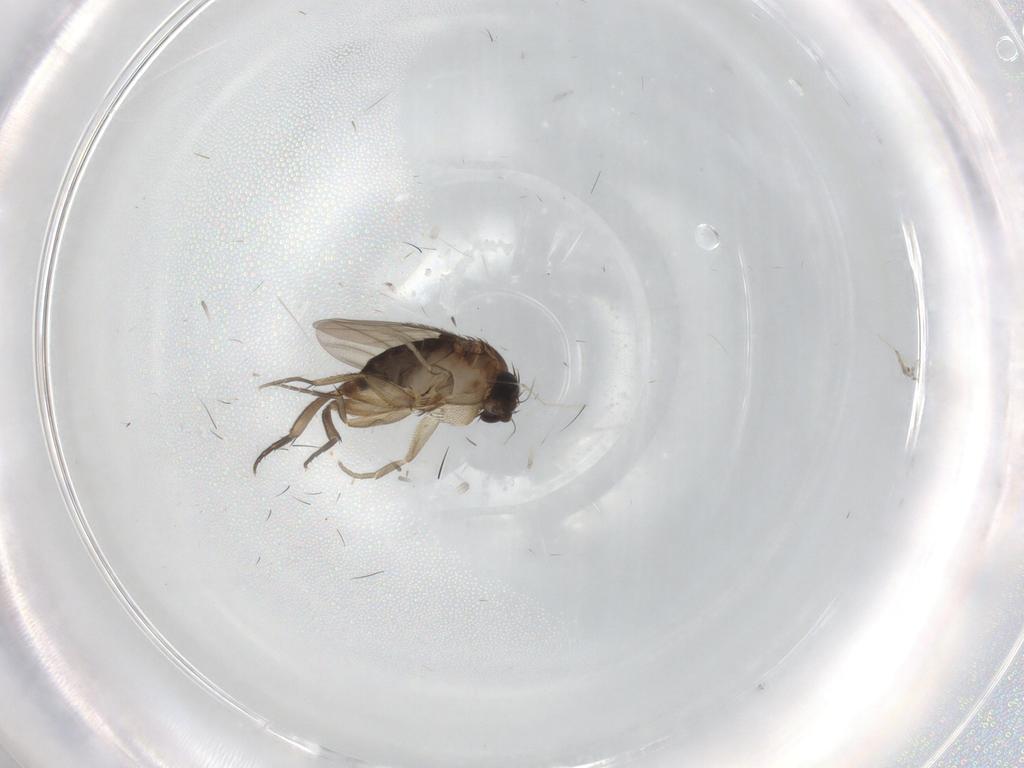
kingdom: Animalia
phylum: Arthropoda
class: Insecta
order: Diptera
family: Phoridae
